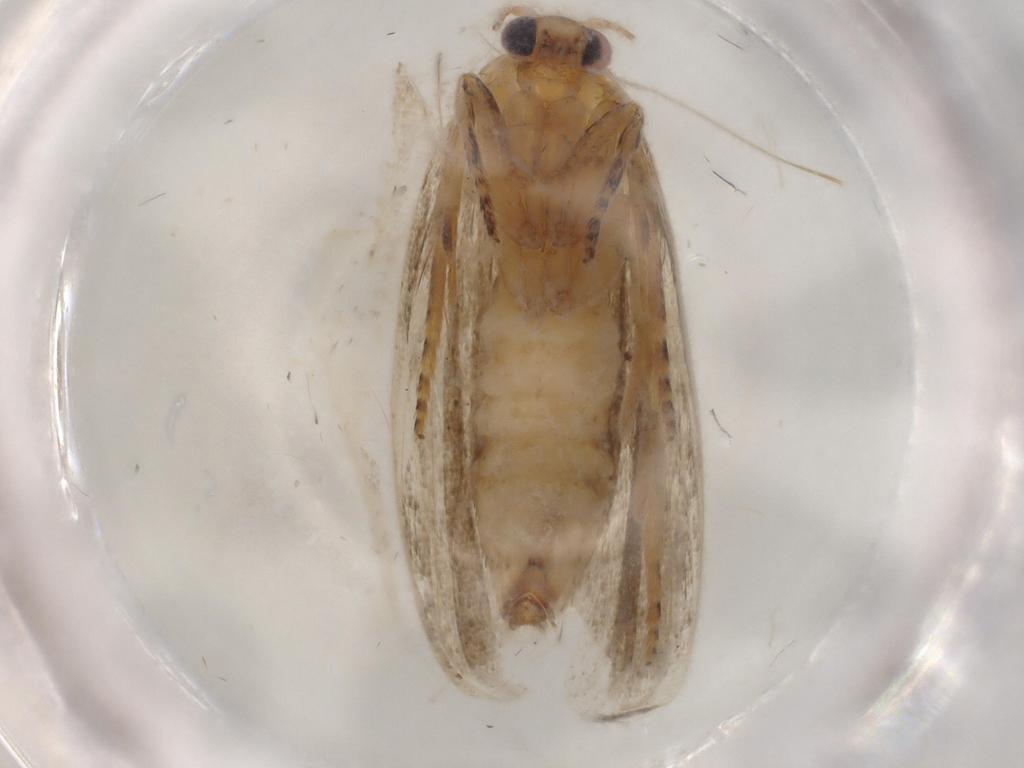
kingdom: Animalia
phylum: Arthropoda
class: Insecta
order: Lepidoptera
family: Tortricidae
